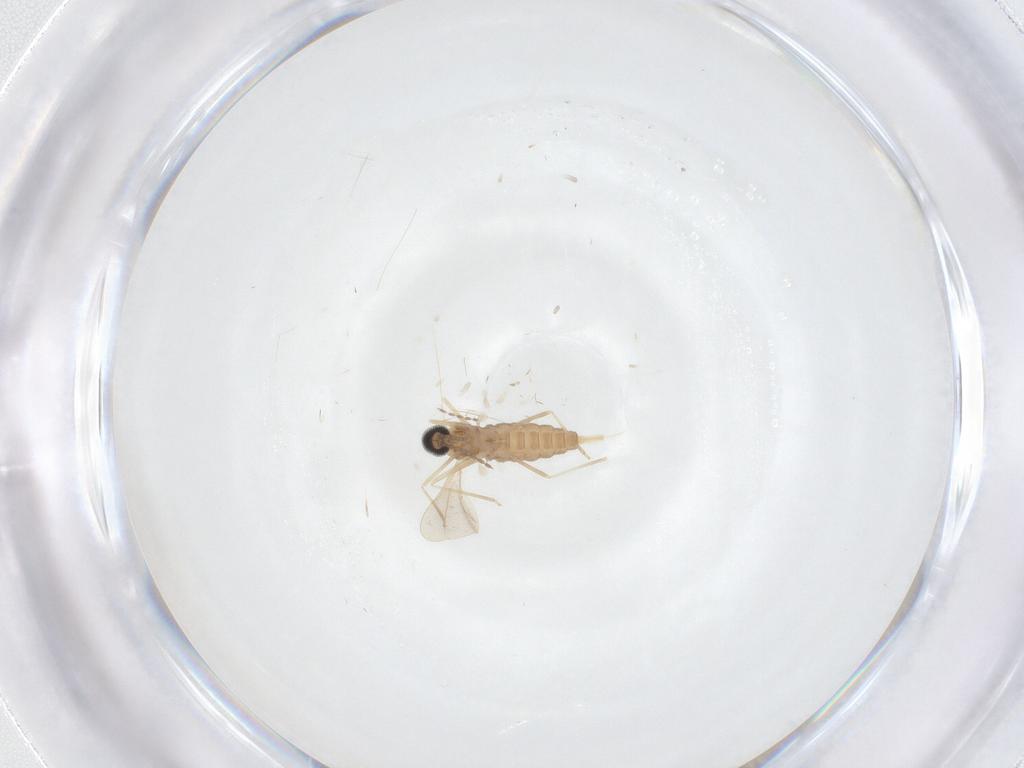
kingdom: Animalia
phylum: Arthropoda
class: Insecta
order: Diptera
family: Cecidomyiidae
